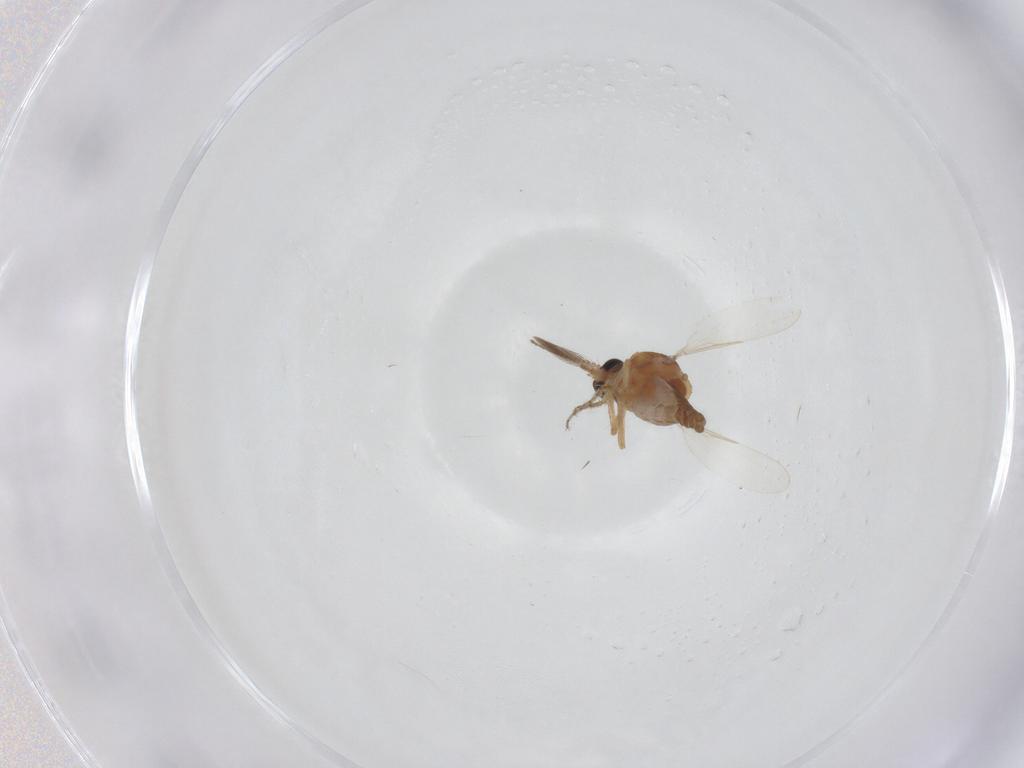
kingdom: Animalia
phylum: Arthropoda
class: Insecta
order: Diptera
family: Ceratopogonidae
